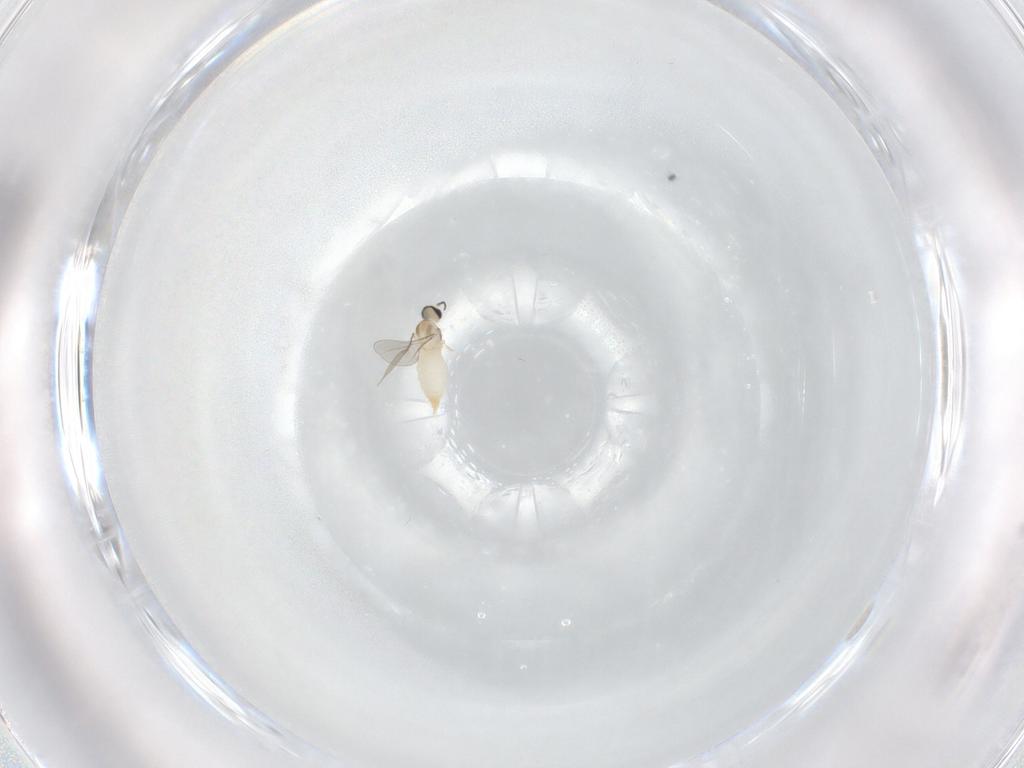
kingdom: Animalia
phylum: Arthropoda
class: Insecta
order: Diptera
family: Cecidomyiidae
